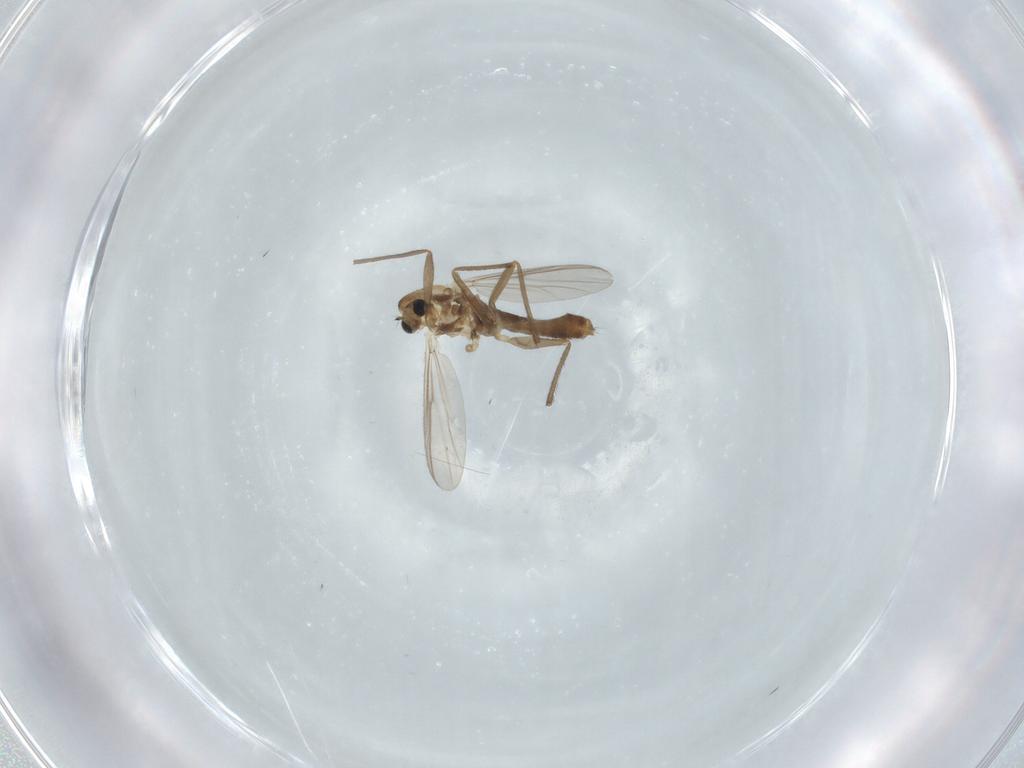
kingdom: Animalia
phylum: Arthropoda
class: Insecta
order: Diptera
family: Chironomidae
